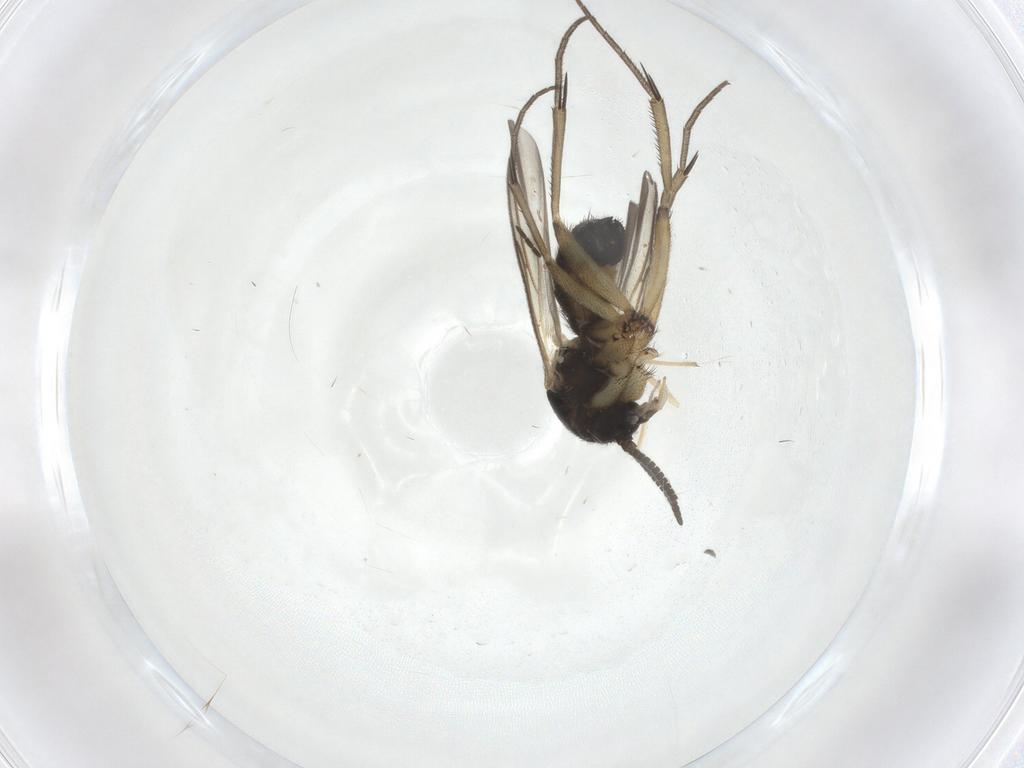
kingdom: Animalia
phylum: Arthropoda
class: Insecta
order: Diptera
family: Mycetophilidae
